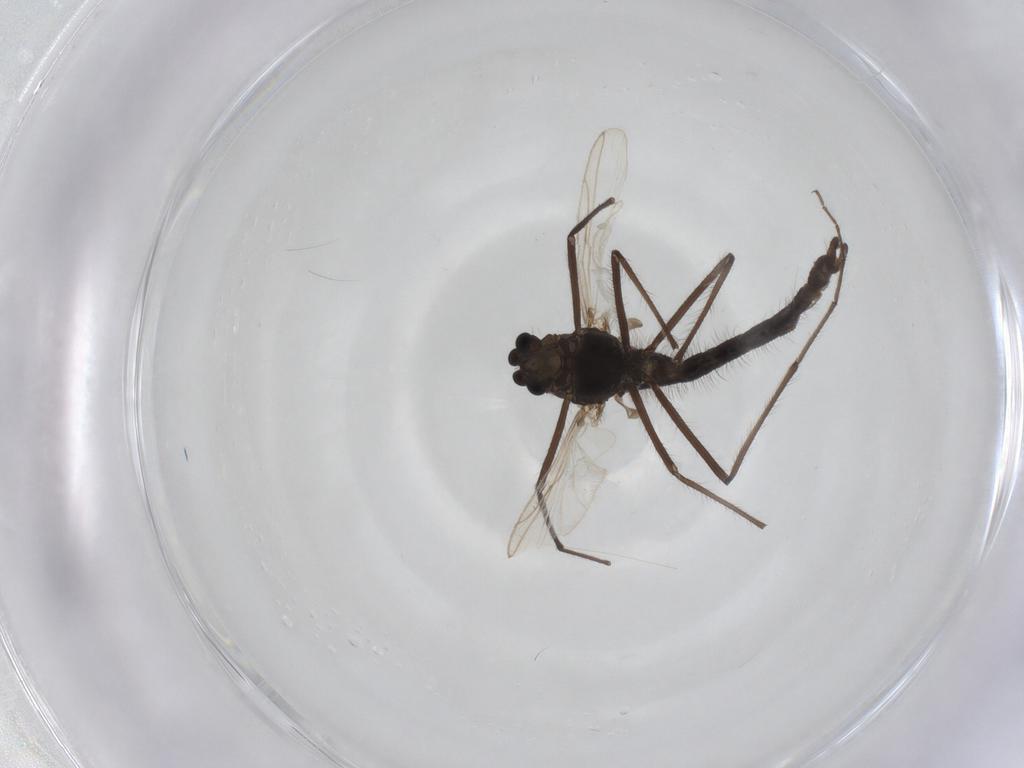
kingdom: Animalia
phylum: Arthropoda
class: Insecta
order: Diptera
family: Chironomidae
